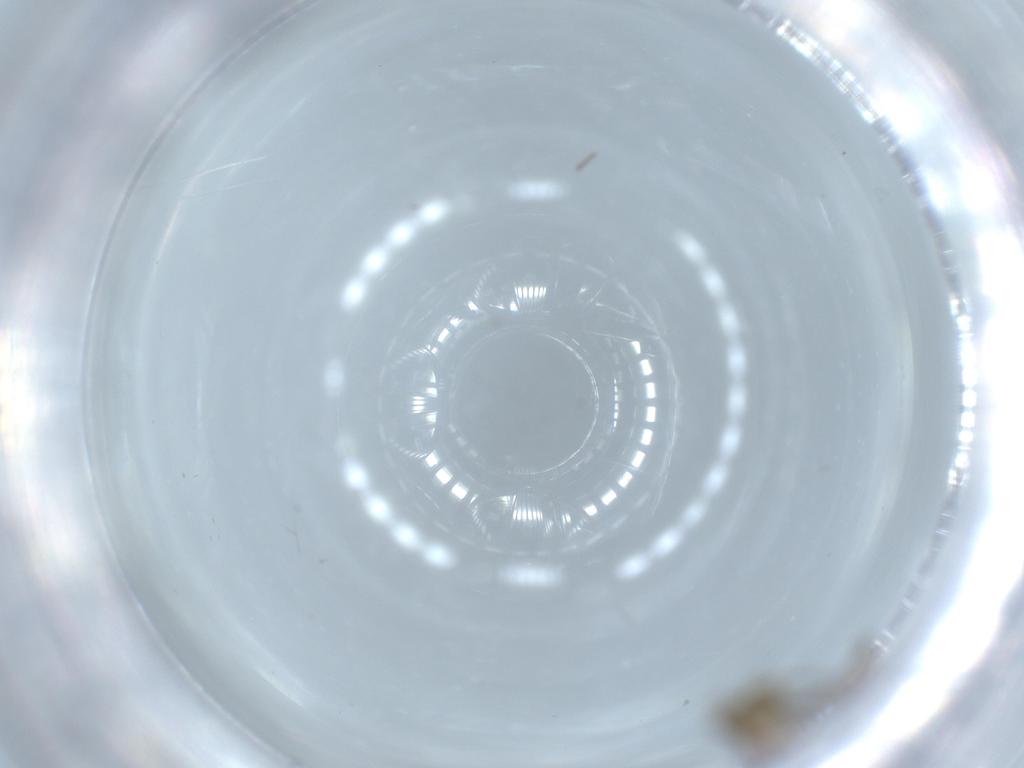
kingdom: Animalia
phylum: Arthropoda
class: Insecta
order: Diptera
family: Chironomidae
